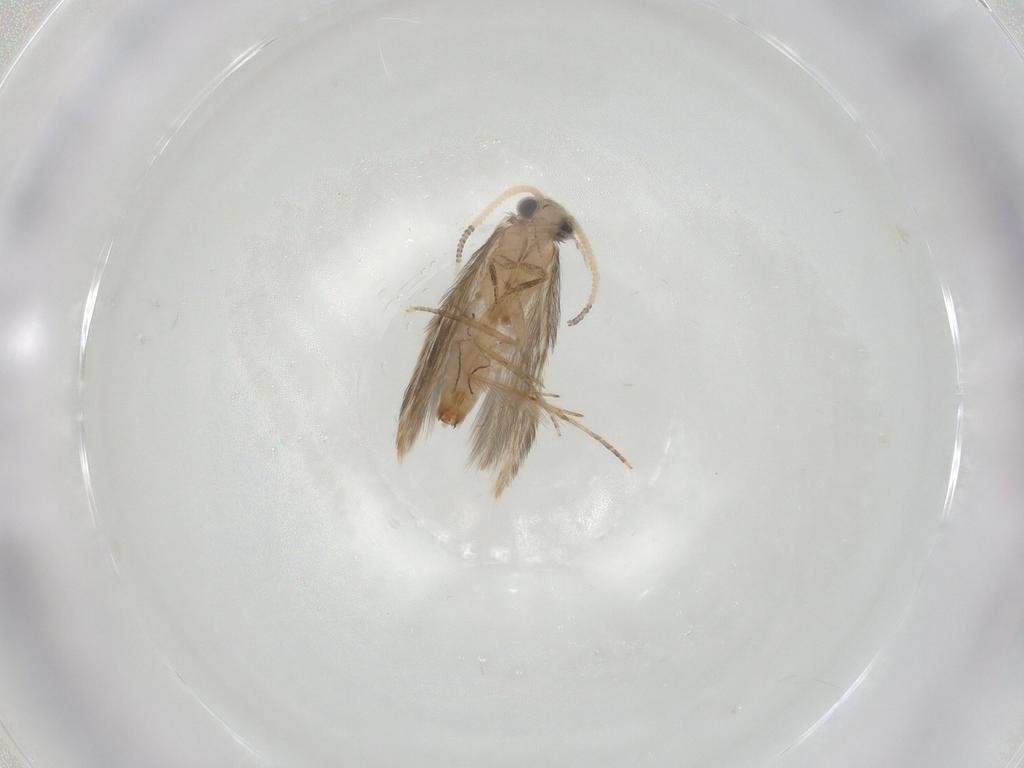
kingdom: Animalia
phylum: Arthropoda
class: Insecta
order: Trichoptera
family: Hydroptilidae
